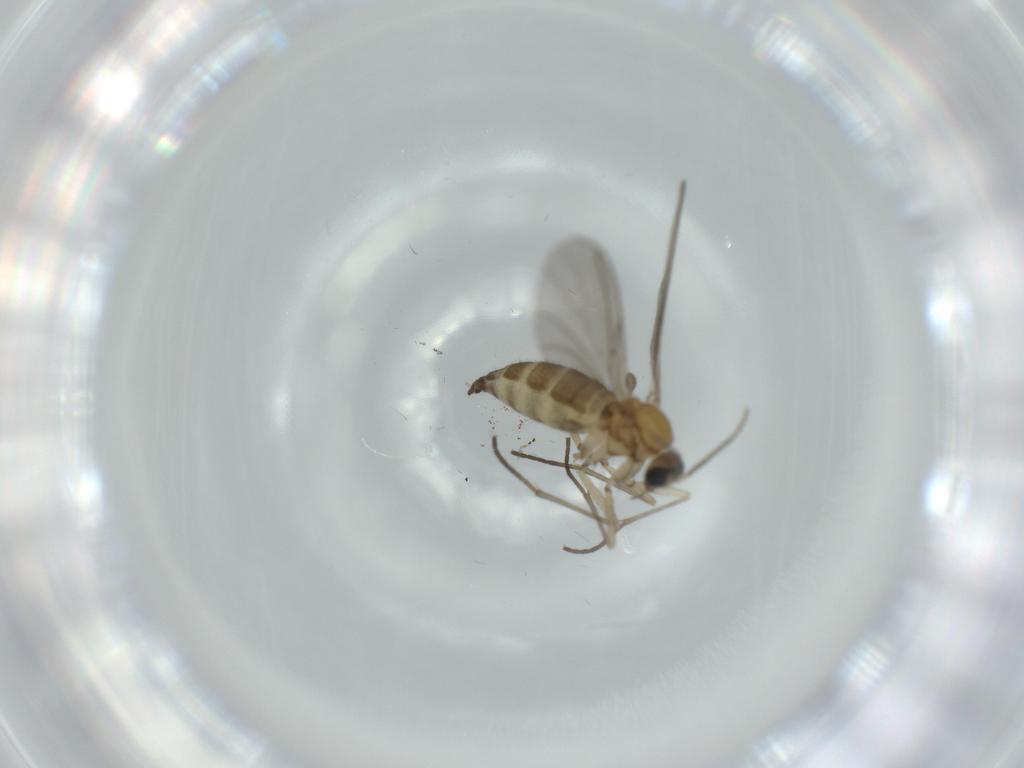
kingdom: Animalia
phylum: Arthropoda
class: Insecta
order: Diptera
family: Sciaridae
